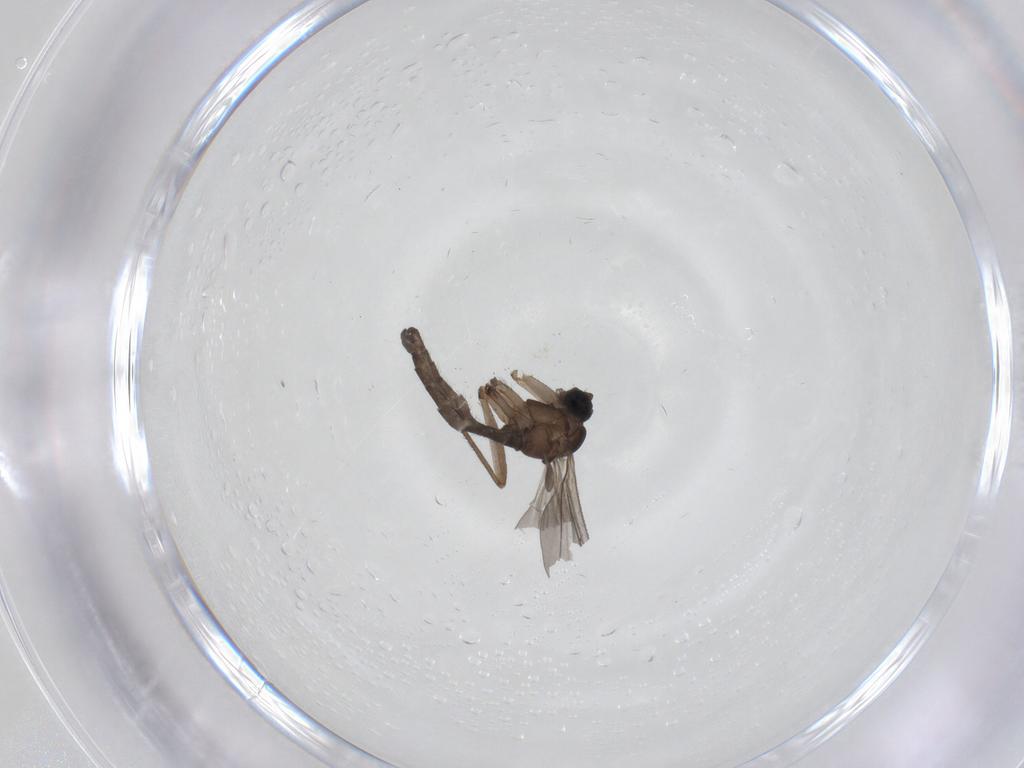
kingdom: Animalia
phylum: Arthropoda
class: Insecta
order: Diptera
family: Sciaridae
